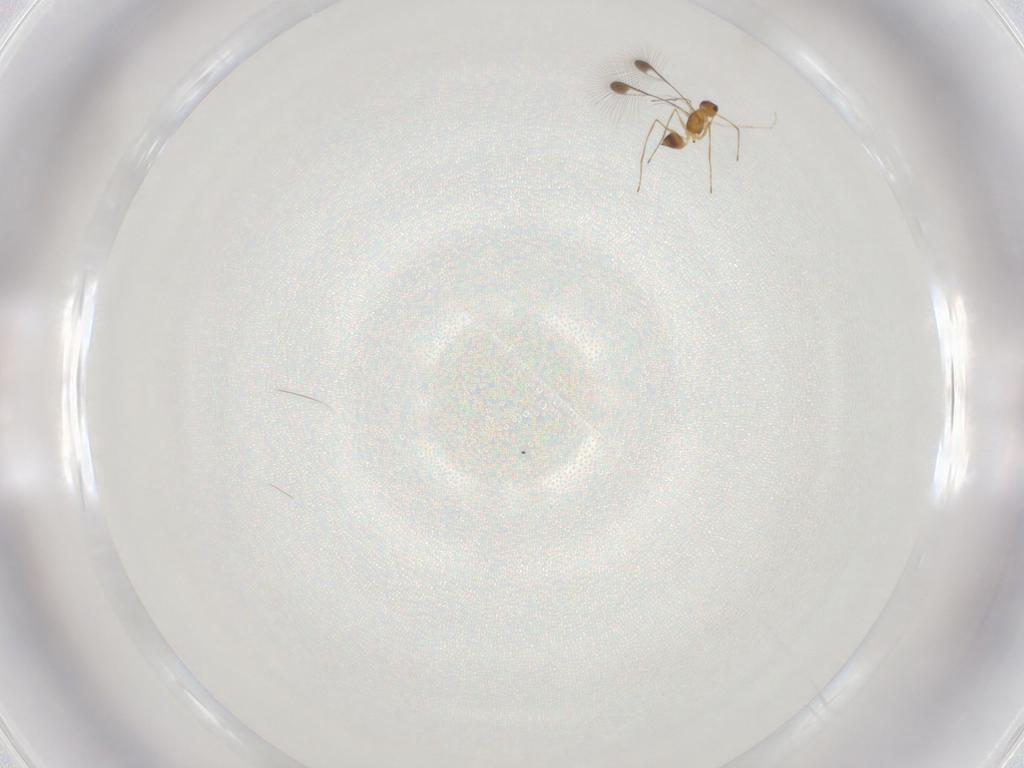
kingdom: Animalia
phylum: Arthropoda
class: Insecta
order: Hymenoptera
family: Mymaridae
